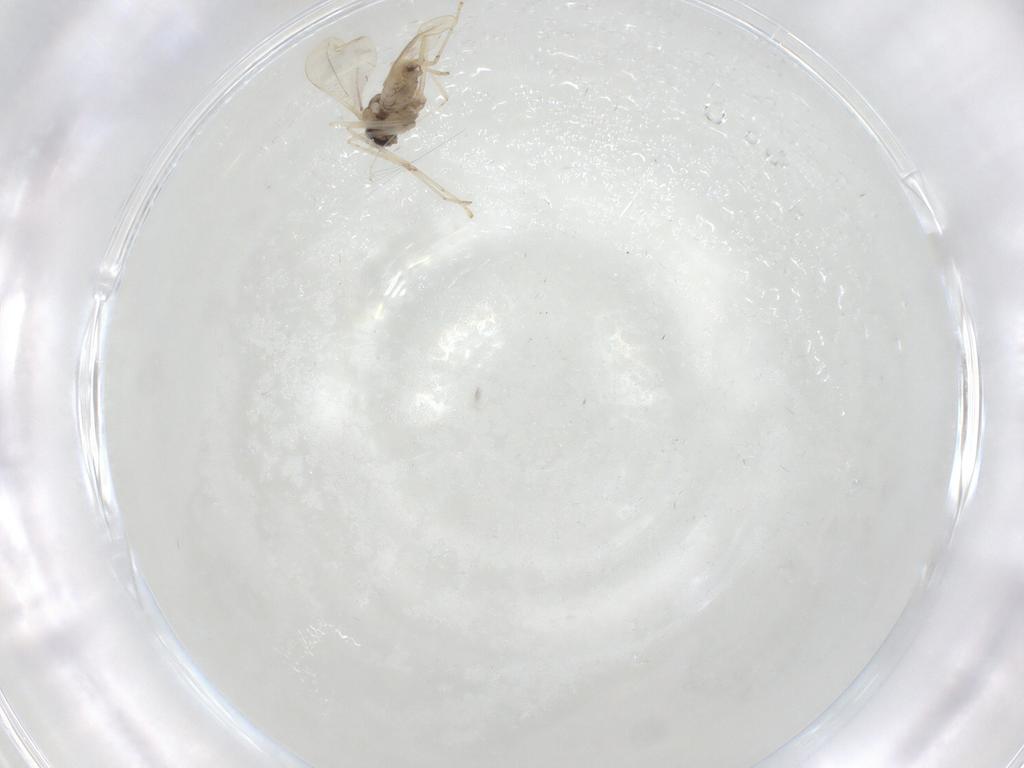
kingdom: Animalia
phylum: Arthropoda
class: Insecta
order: Diptera
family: Cecidomyiidae
